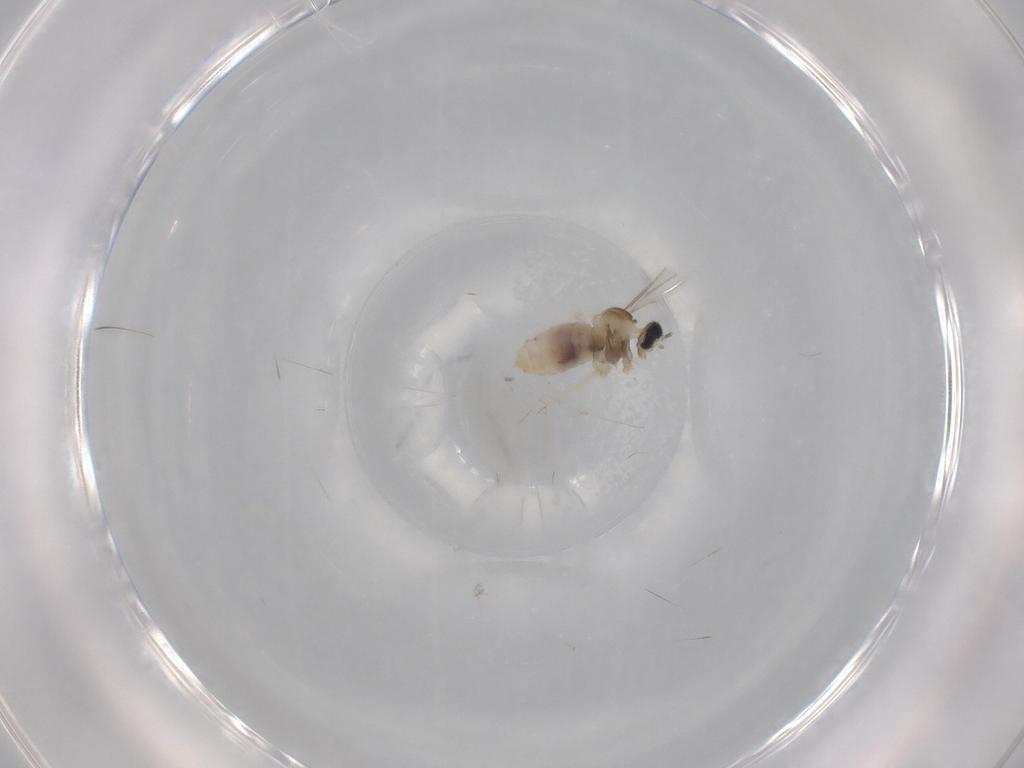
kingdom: Animalia
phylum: Arthropoda
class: Insecta
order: Diptera
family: Cecidomyiidae
